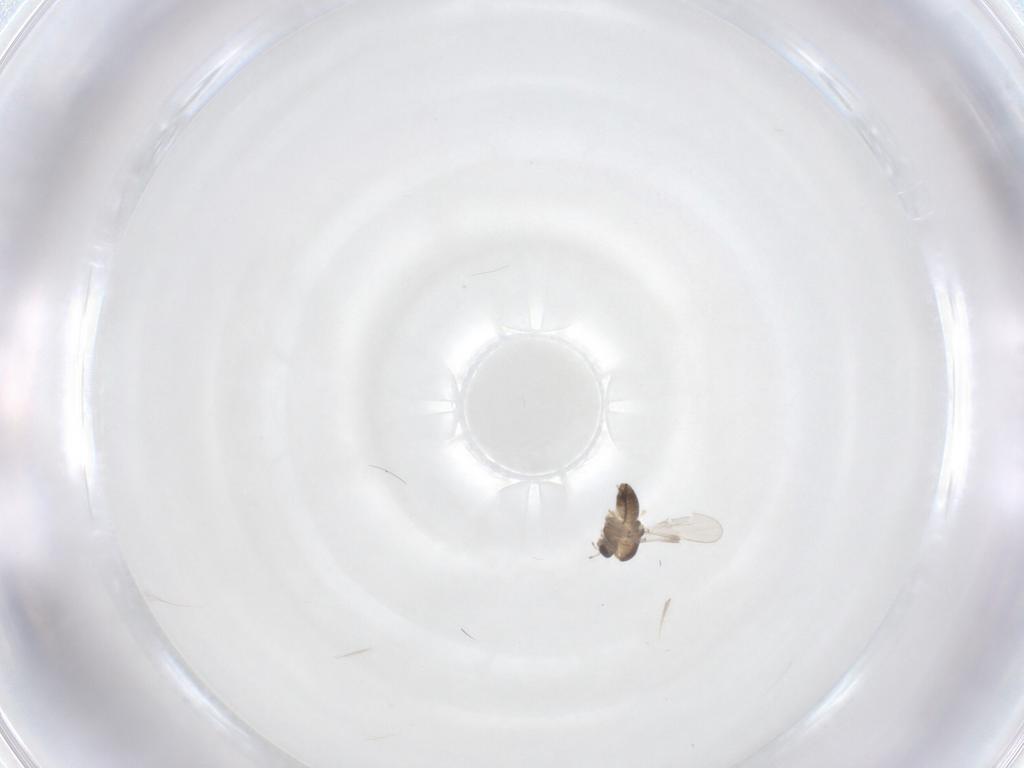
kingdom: Animalia
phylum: Arthropoda
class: Insecta
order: Diptera
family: Chironomidae
